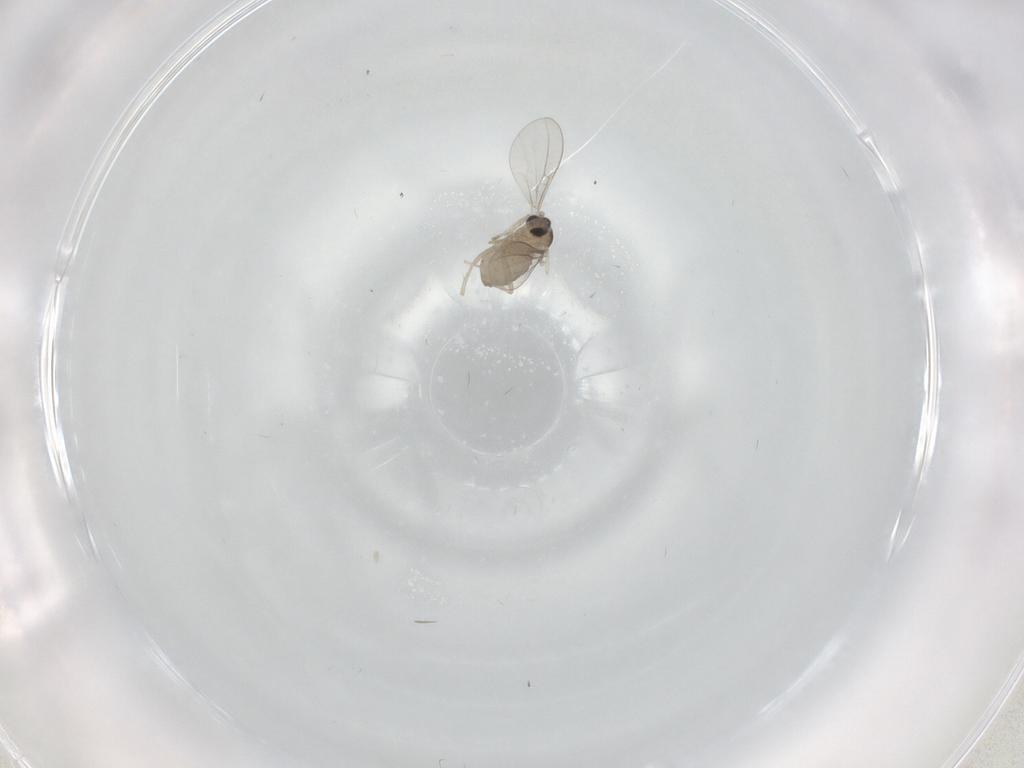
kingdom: Animalia
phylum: Arthropoda
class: Insecta
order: Diptera
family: Cecidomyiidae
